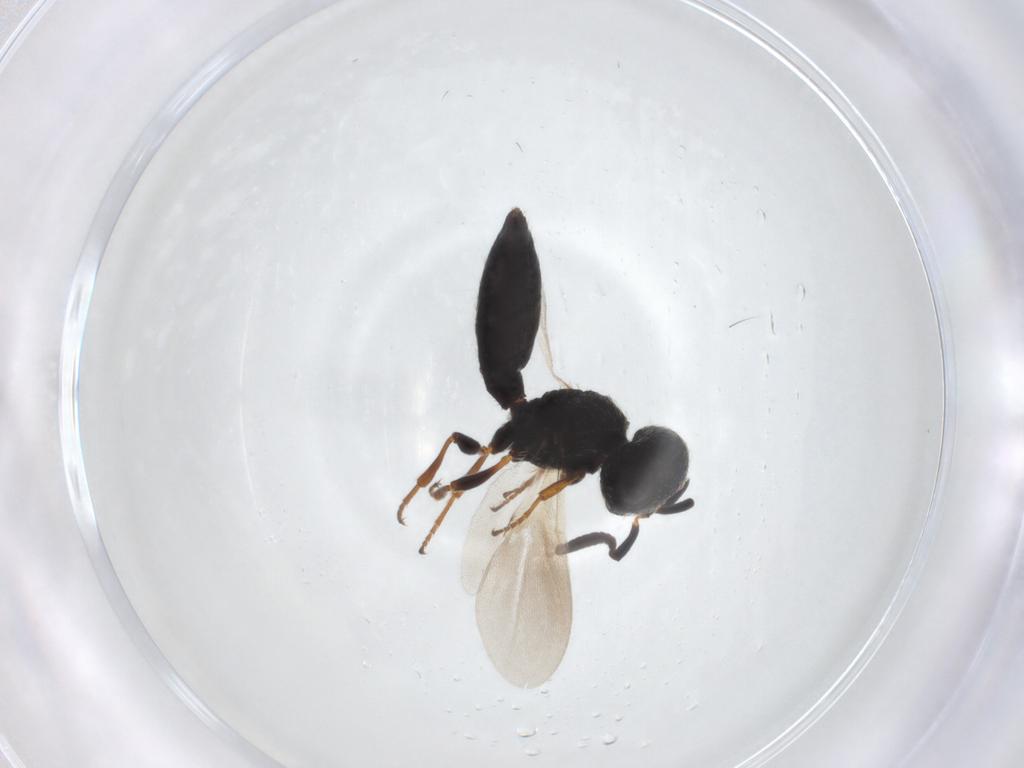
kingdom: Animalia
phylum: Arthropoda
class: Insecta
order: Hymenoptera
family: Scelionidae
